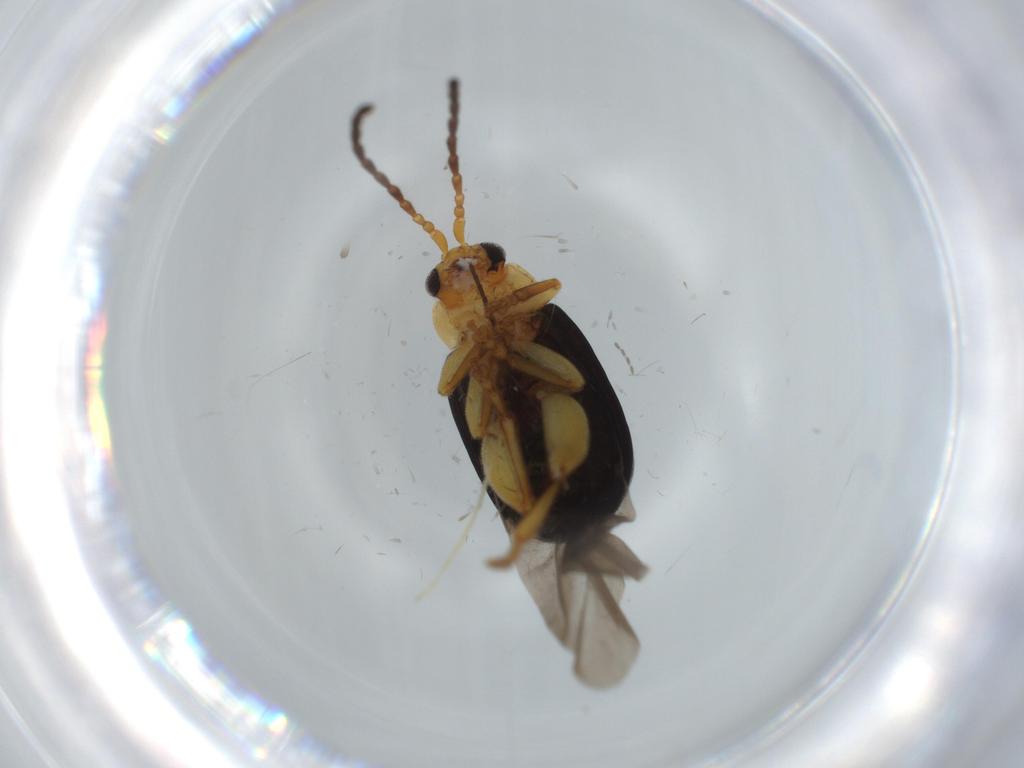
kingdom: Animalia
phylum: Arthropoda
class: Insecta
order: Coleoptera
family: Chrysomelidae
